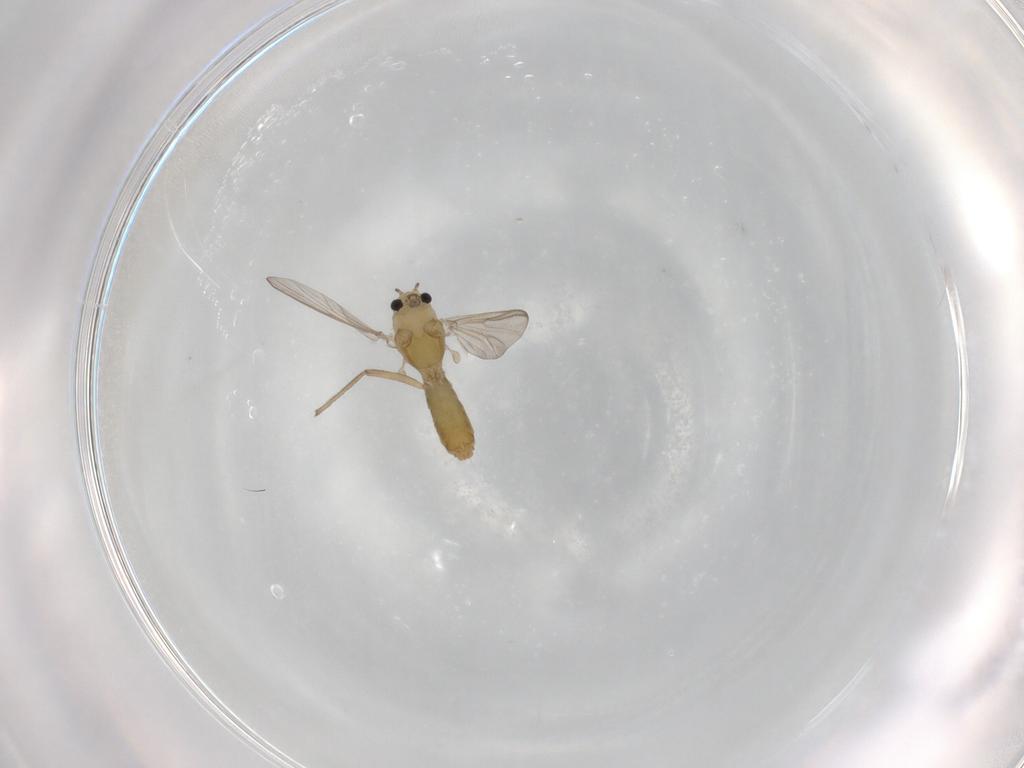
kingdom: Animalia
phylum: Arthropoda
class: Insecta
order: Diptera
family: Chironomidae
